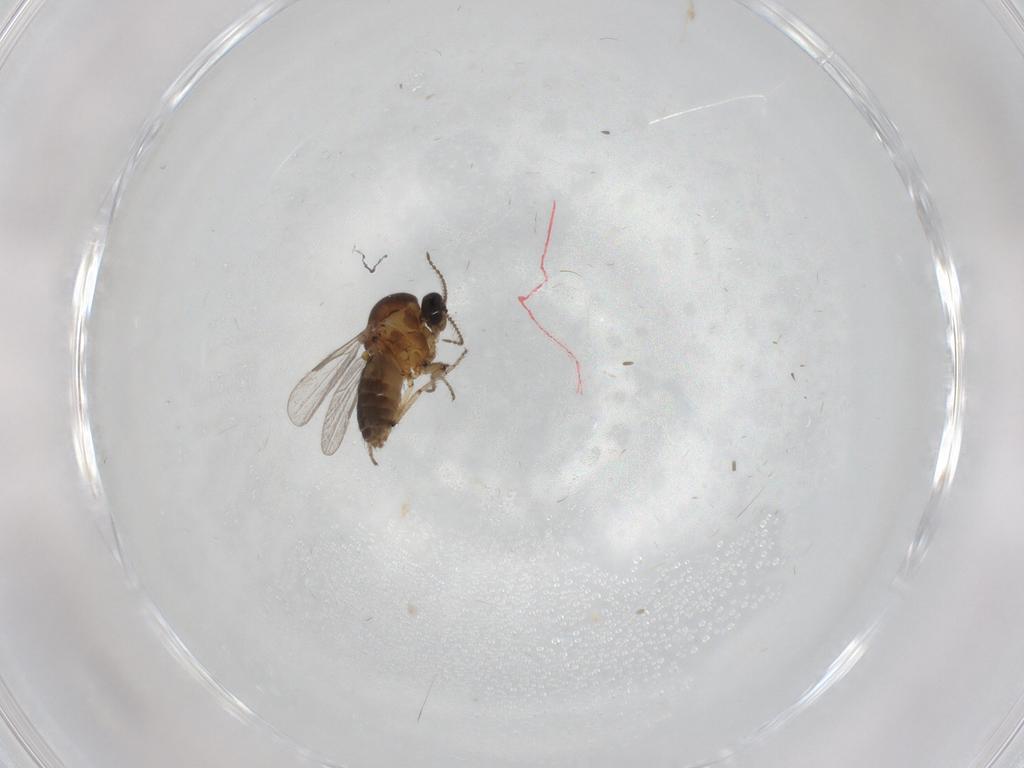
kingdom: Animalia
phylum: Arthropoda
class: Insecta
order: Diptera
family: Ceratopogonidae
